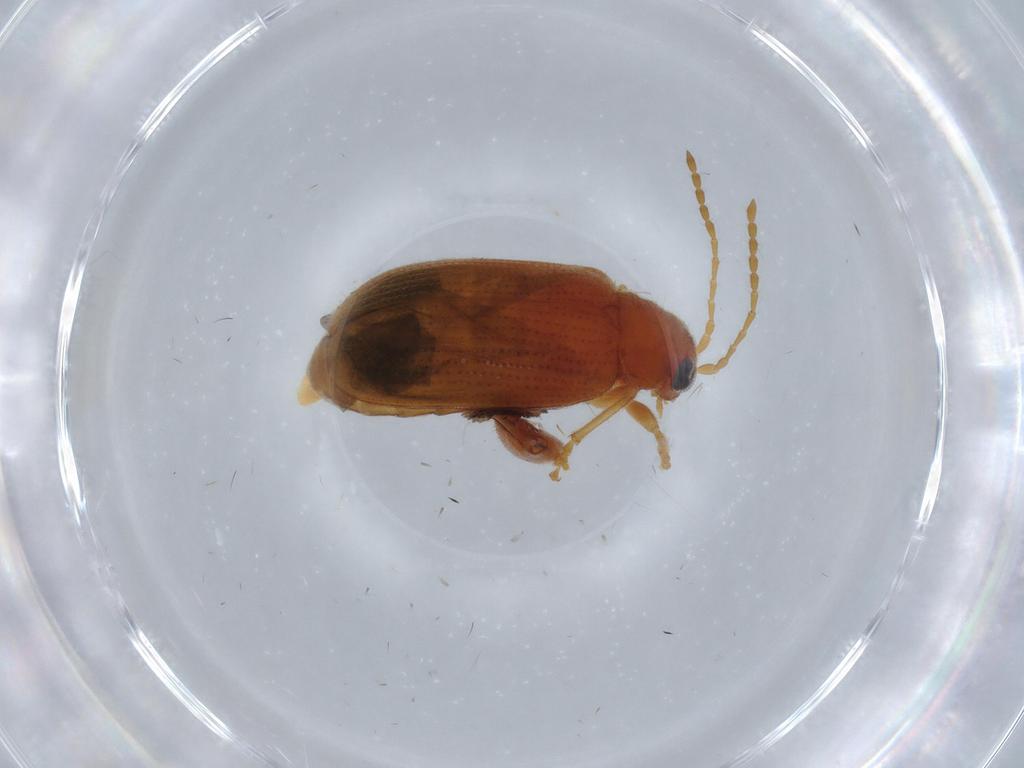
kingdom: Animalia
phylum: Arthropoda
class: Insecta
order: Coleoptera
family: Chrysomelidae
